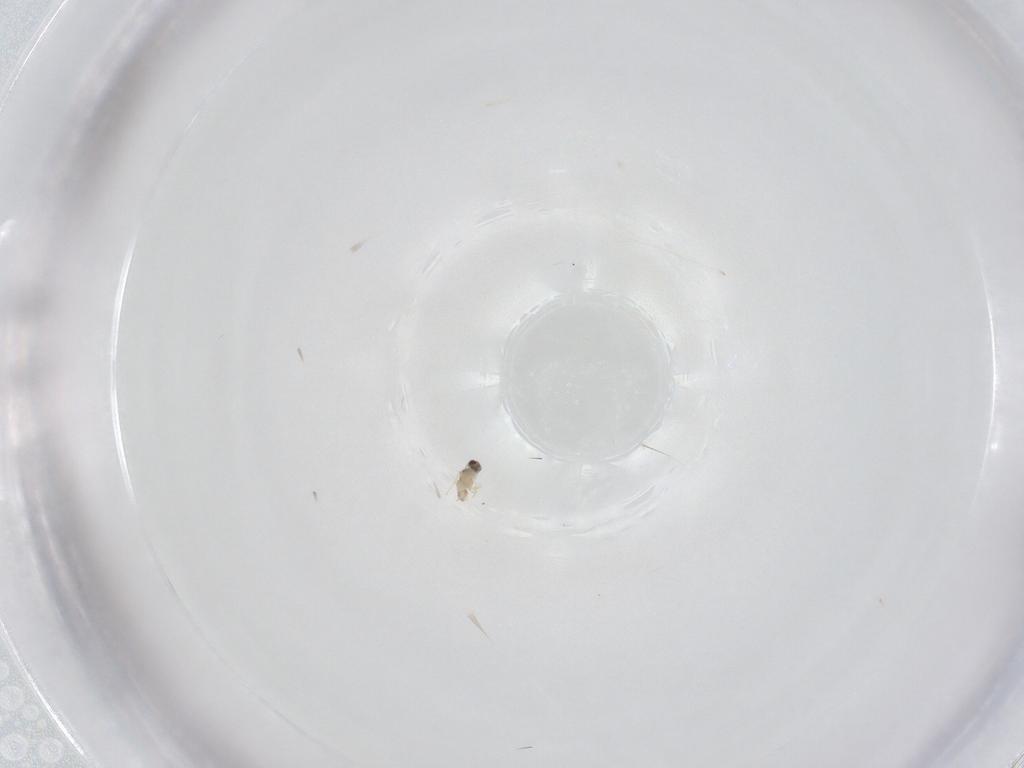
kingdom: Animalia
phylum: Arthropoda
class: Insecta
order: Hymenoptera
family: Mymaridae
